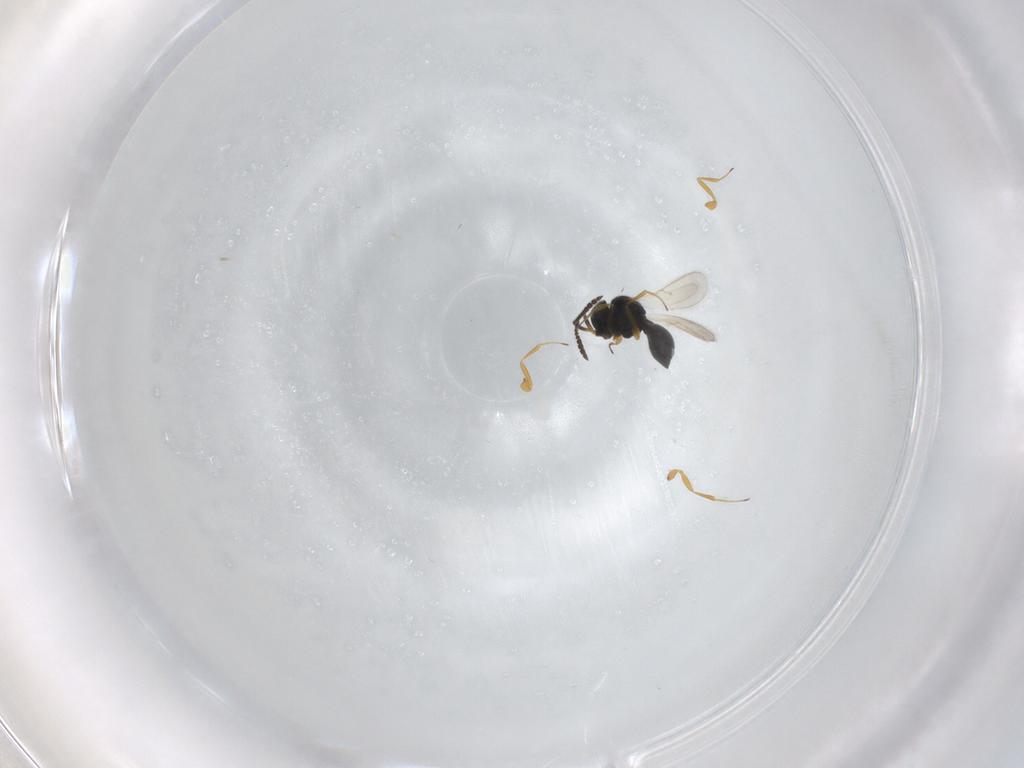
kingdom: Animalia
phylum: Arthropoda
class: Insecta
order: Hymenoptera
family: Scelionidae
